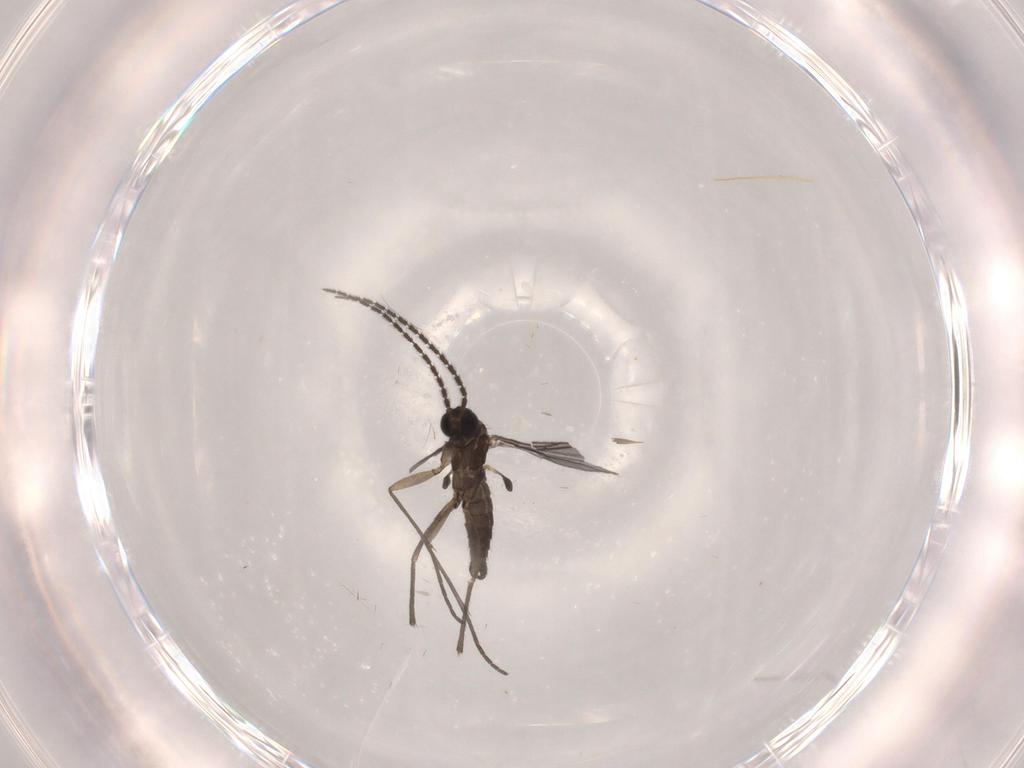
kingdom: Animalia
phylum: Arthropoda
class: Insecta
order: Diptera
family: Sciaridae
